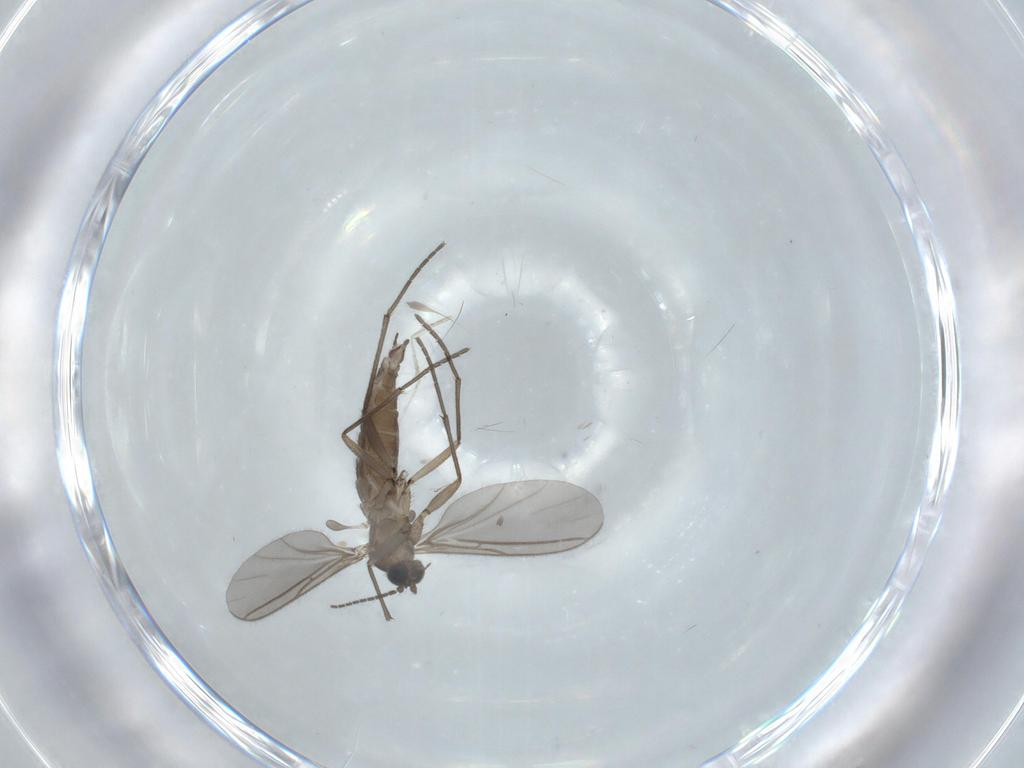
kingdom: Animalia
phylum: Arthropoda
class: Insecta
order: Diptera
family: Sciaridae
